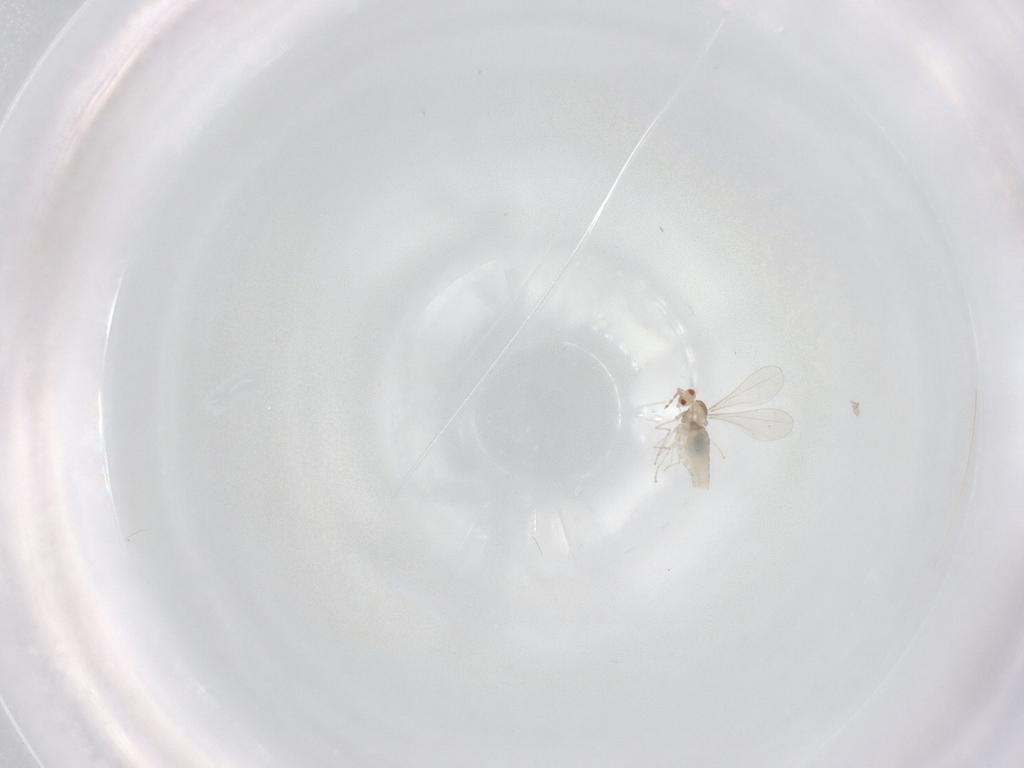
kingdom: Animalia
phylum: Arthropoda
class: Insecta
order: Diptera
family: Cecidomyiidae
